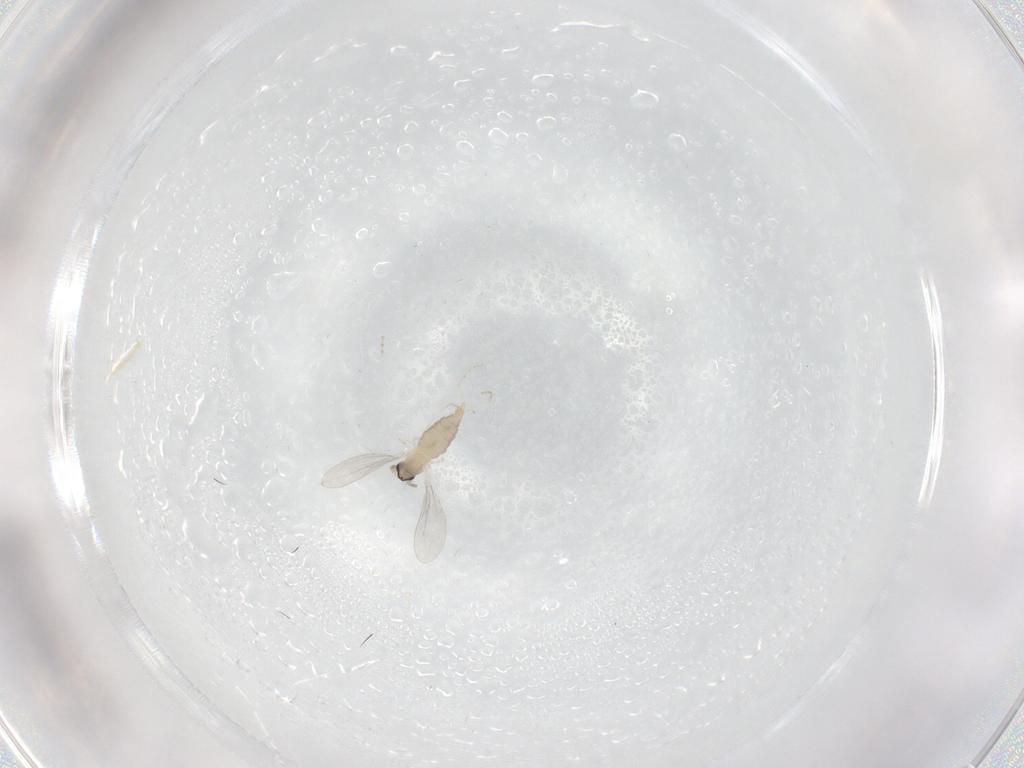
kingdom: Animalia
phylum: Arthropoda
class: Insecta
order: Diptera
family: Cecidomyiidae
